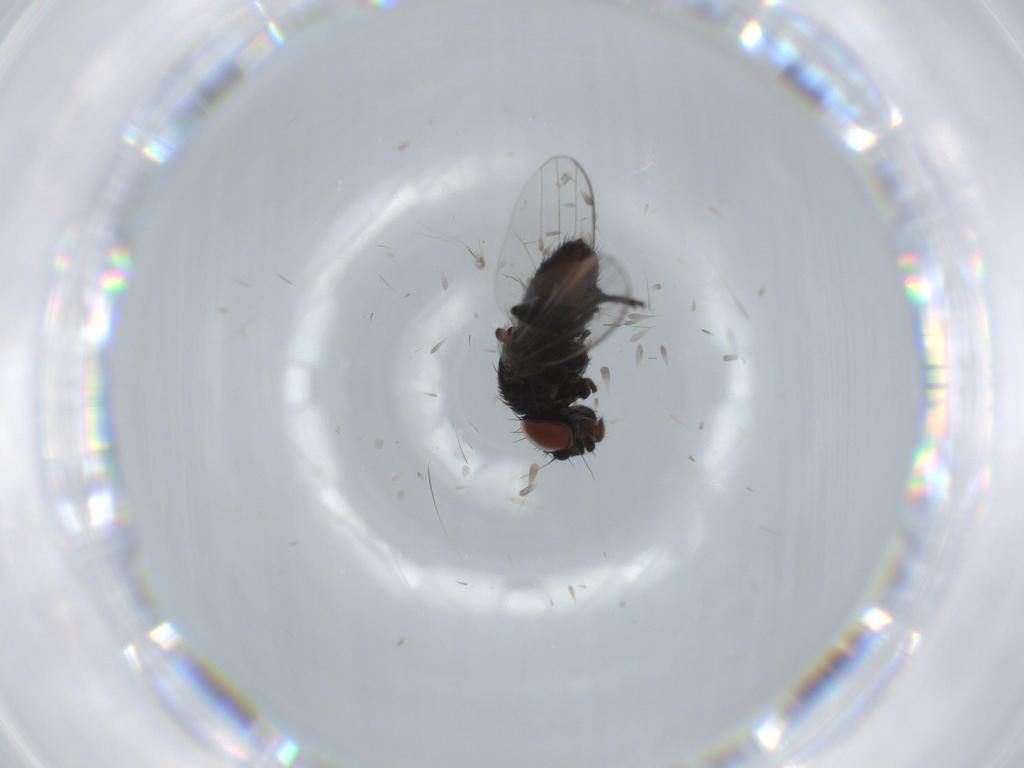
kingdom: Animalia
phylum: Arthropoda
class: Insecta
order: Diptera
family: Milichiidae
